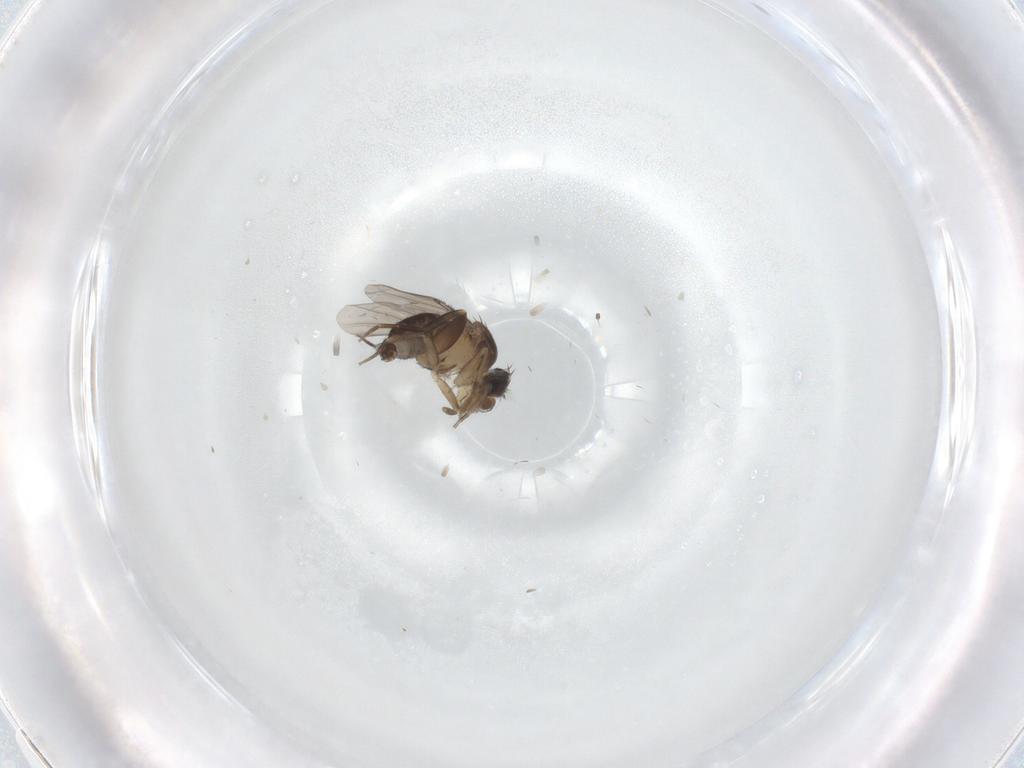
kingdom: Animalia
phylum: Arthropoda
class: Insecta
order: Diptera
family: Phoridae
